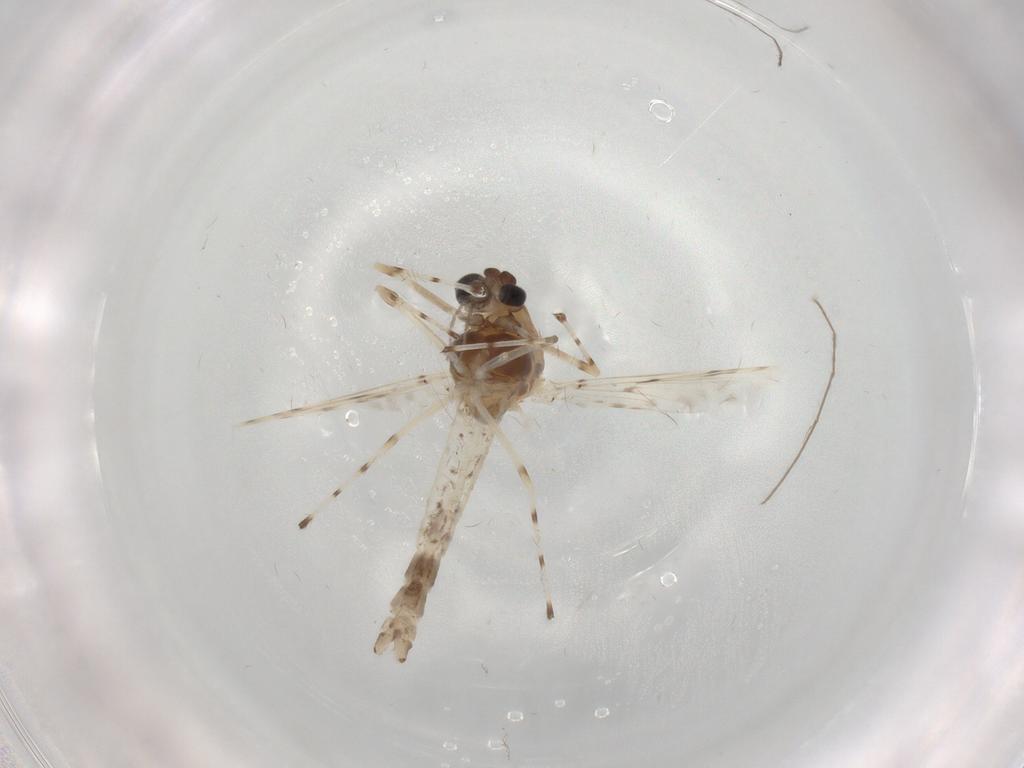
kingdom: Animalia
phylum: Arthropoda
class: Insecta
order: Diptera
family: Chironomidae
